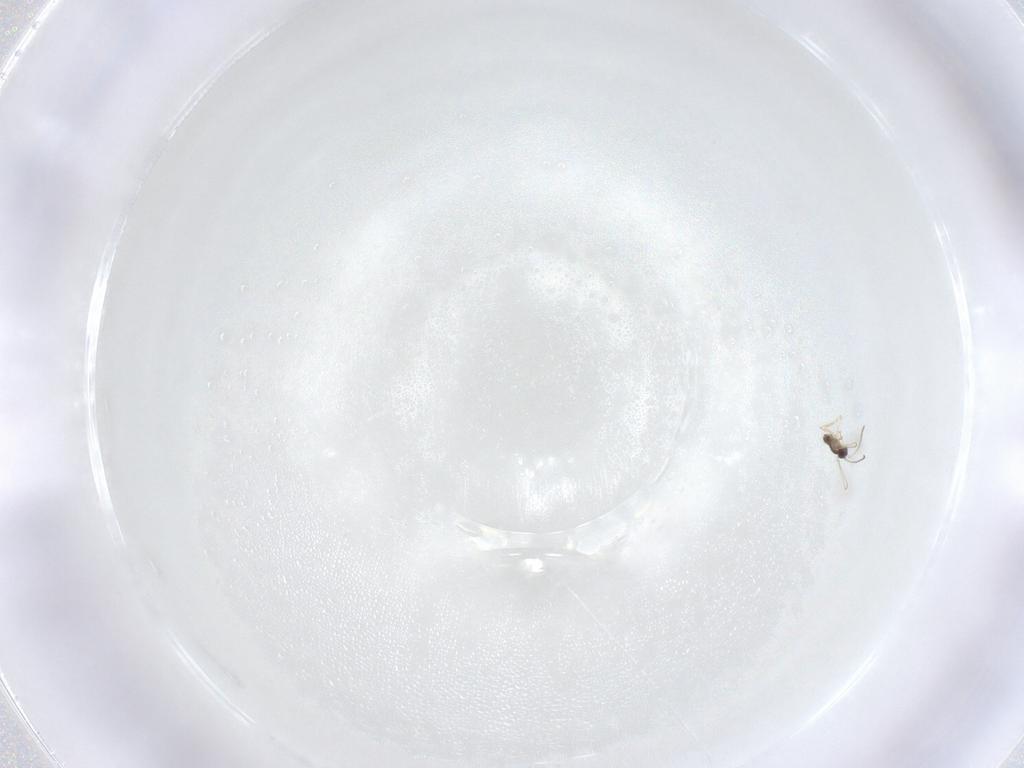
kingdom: Animalia
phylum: Arthropoda
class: Insecta
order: Hymenoptera
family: Mymaridae
